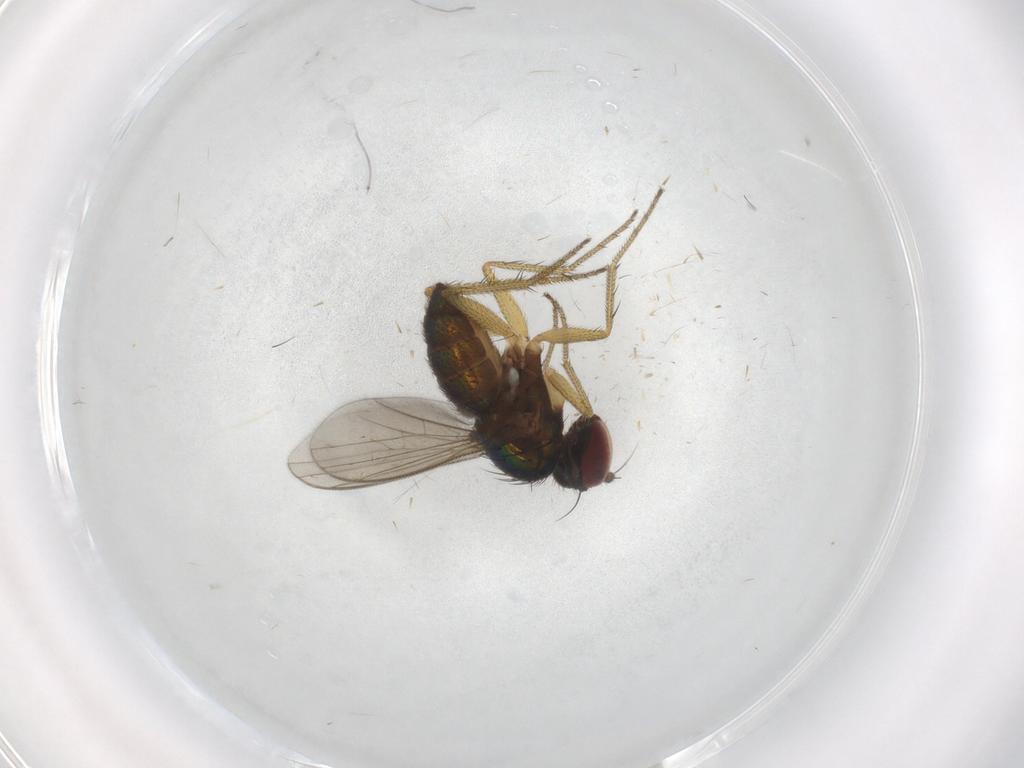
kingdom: Animalia
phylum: Arthropoda
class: Insecta
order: Diptera
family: Dolichopodidae
